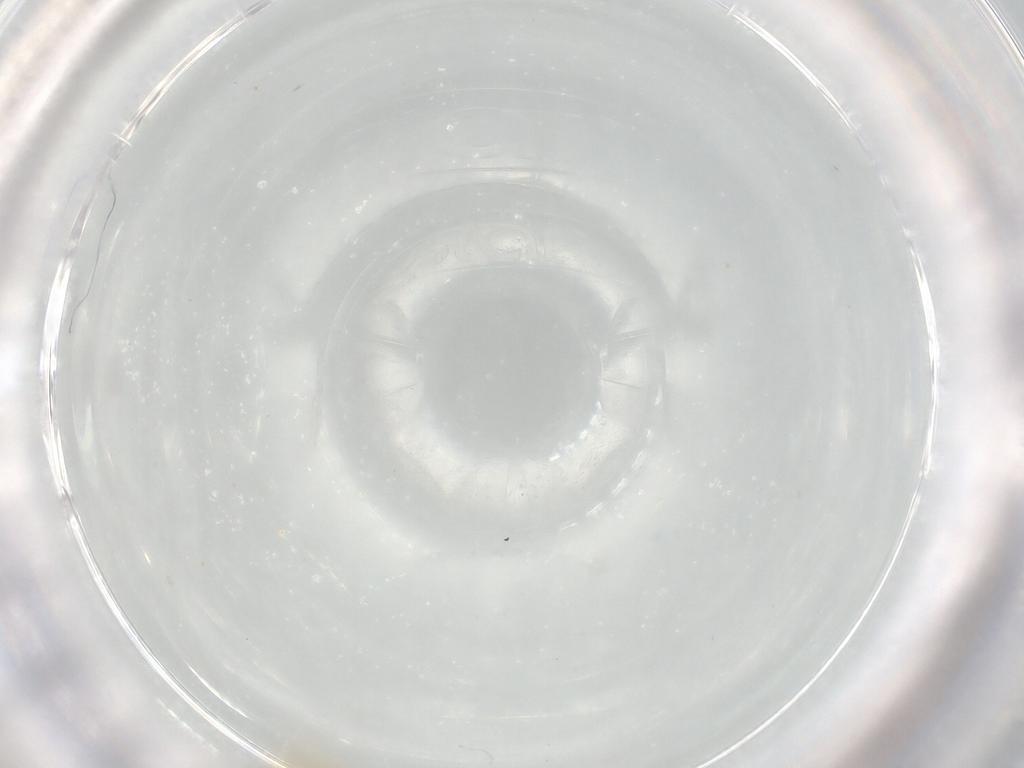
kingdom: Animalia
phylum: Arthropoda
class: Insecta
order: Diptera
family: Cecidomyiidae
